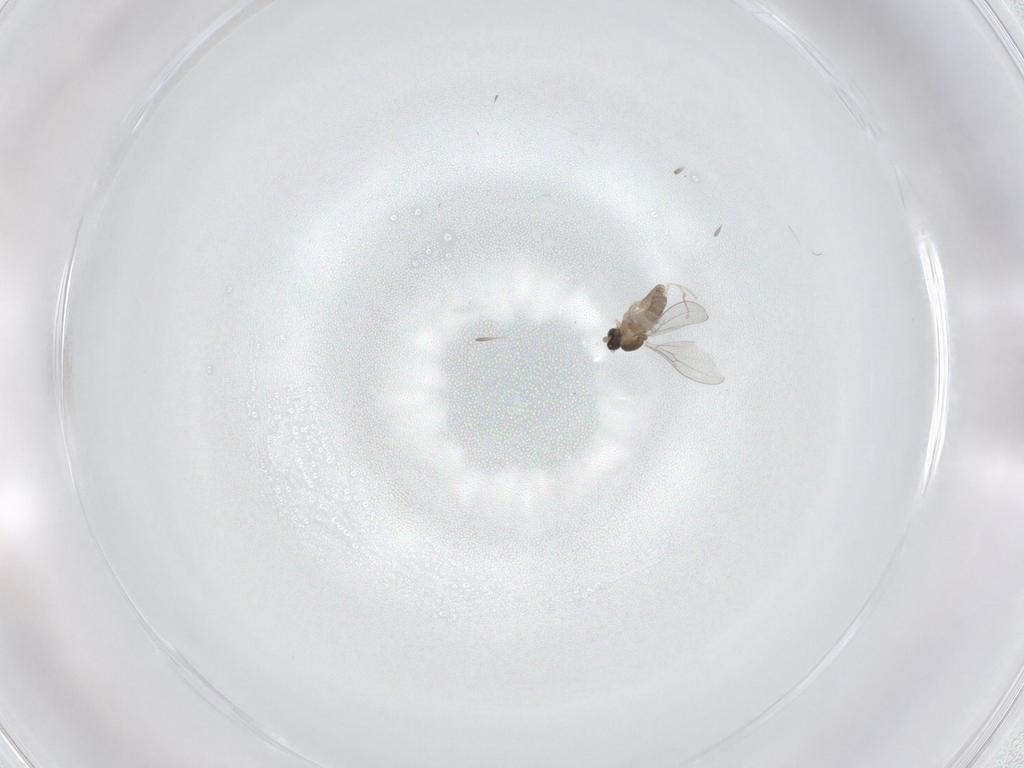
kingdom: Animalia
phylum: Arthropoda
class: Insecta
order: Diptera
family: Cecidomyiidae
